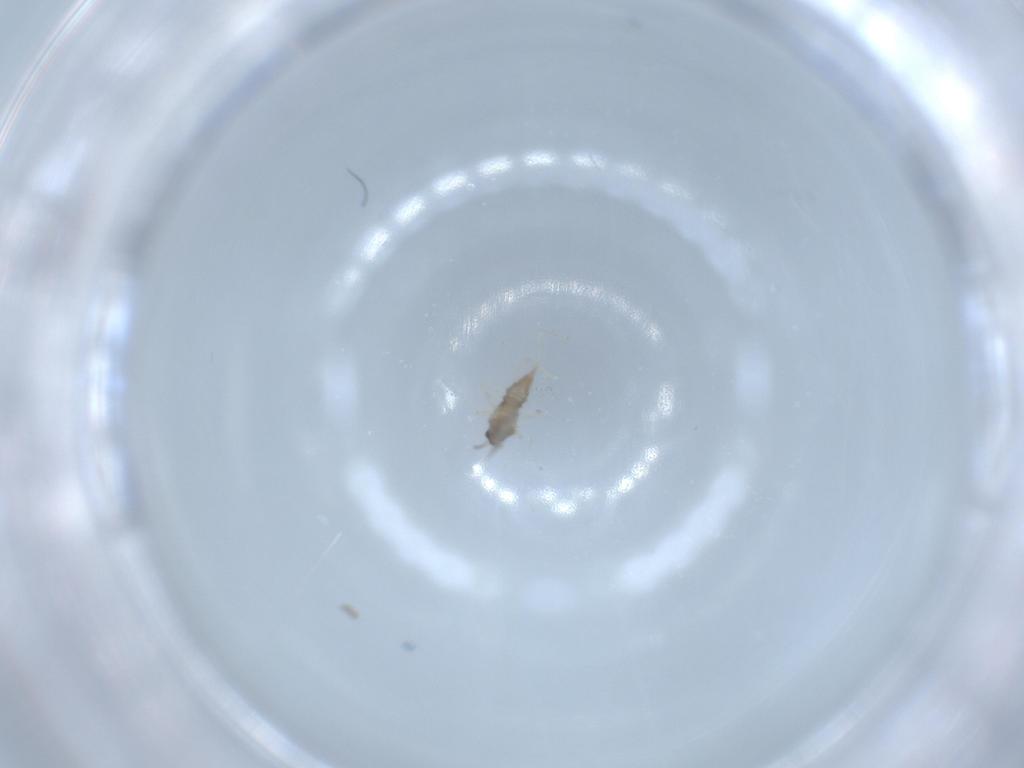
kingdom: Animalia
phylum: Arthropoda
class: Insecta
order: Diptera
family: Cecidomyiidae
